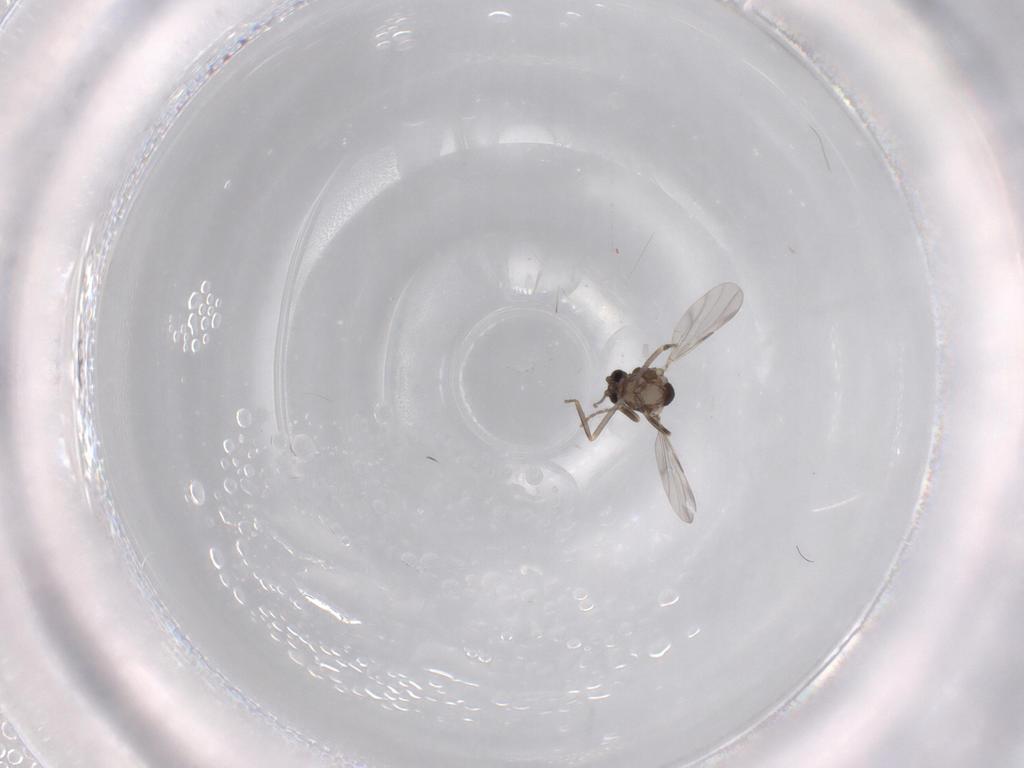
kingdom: Animalia
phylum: Arthropoda
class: Insecta
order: Diptera
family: Ceratopogonidae
